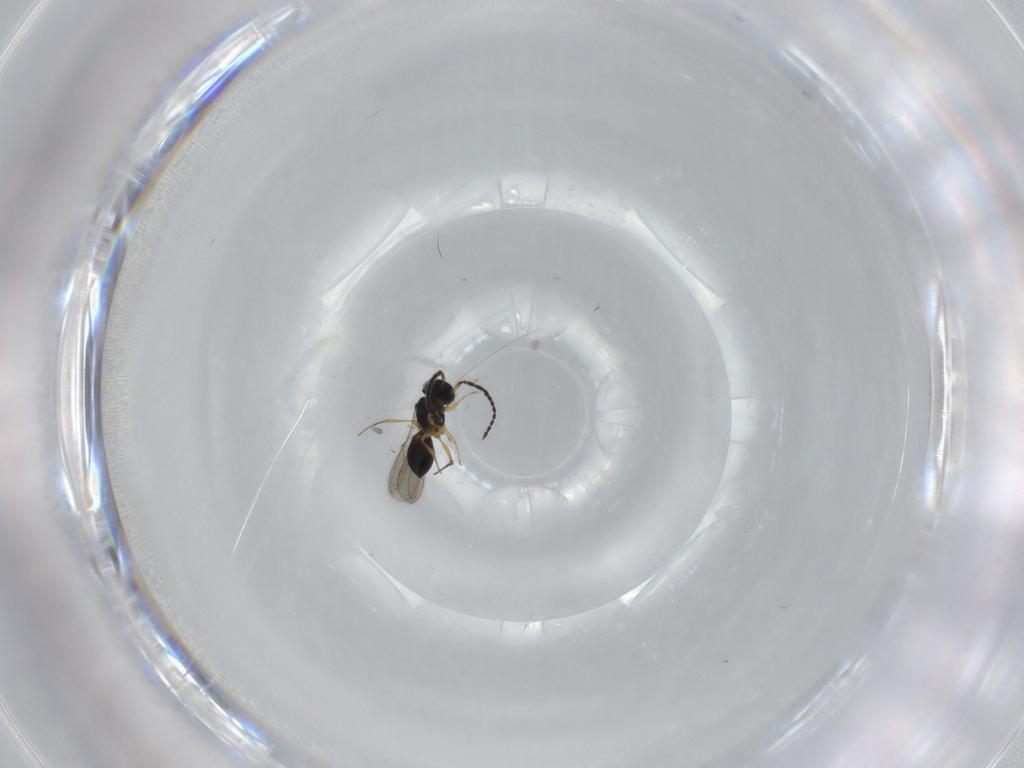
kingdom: Animalia
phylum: Arthropoda
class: Insecta
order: Hymenoptera
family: Scelionidae
